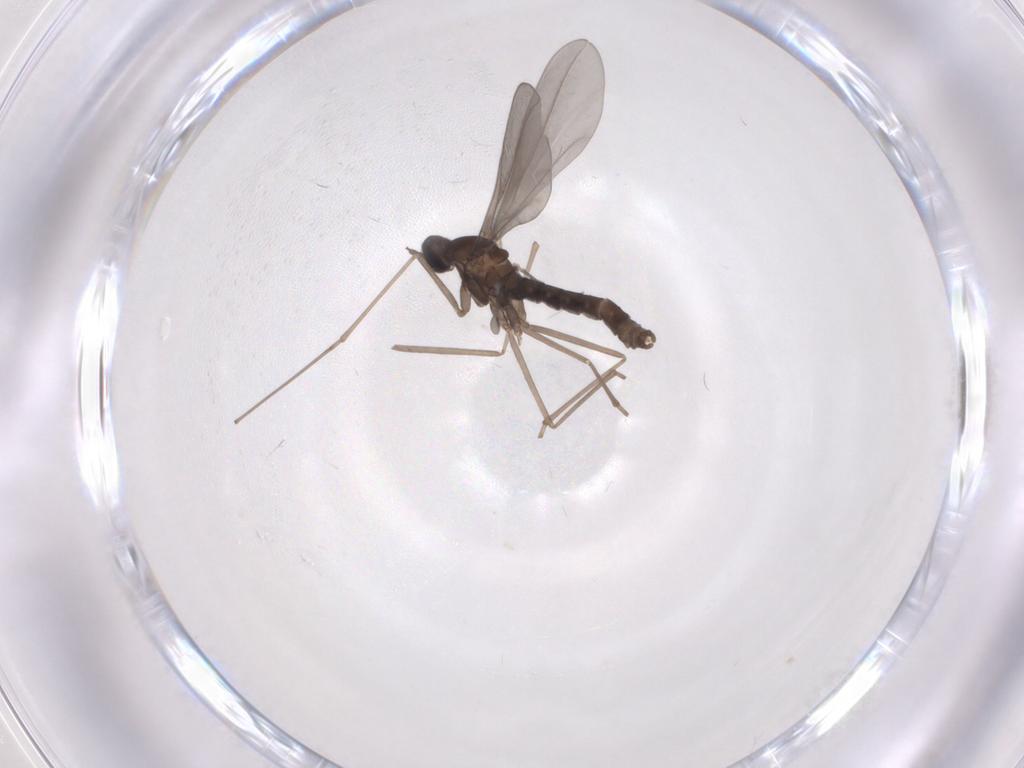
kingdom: Animalia
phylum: Arthropoda
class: Insecta
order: Diptera
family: Cecidomyiidae
